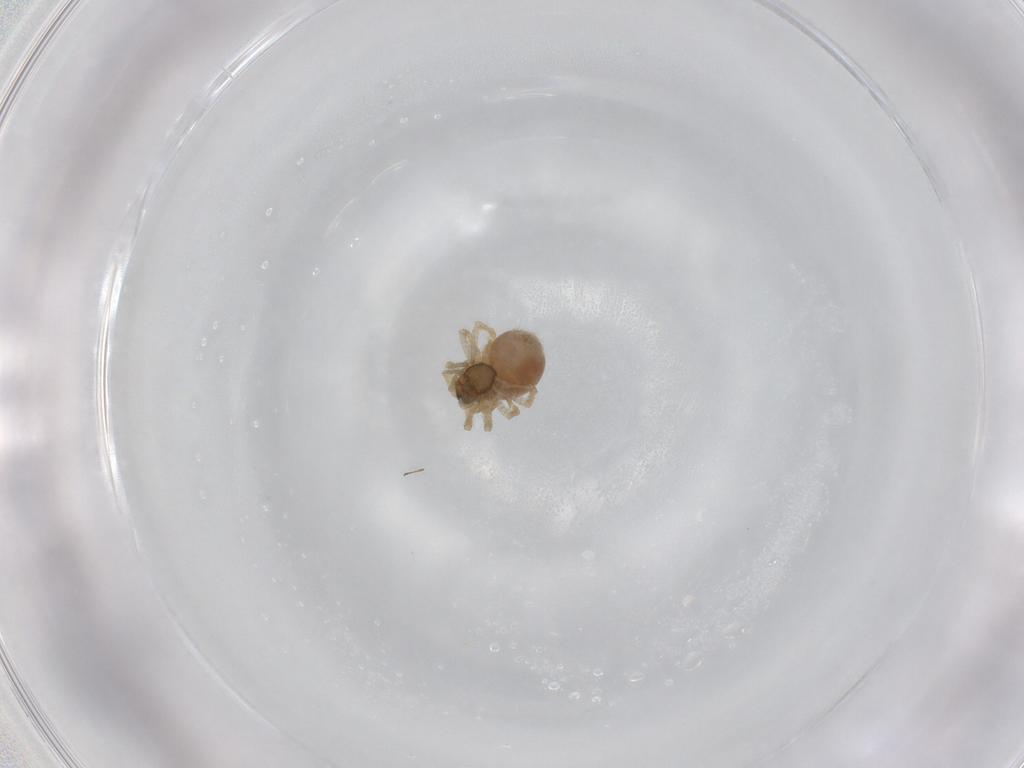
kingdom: Animalia
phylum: Arthropoda
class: Arachnida
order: Araneae
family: Linyphiidae
